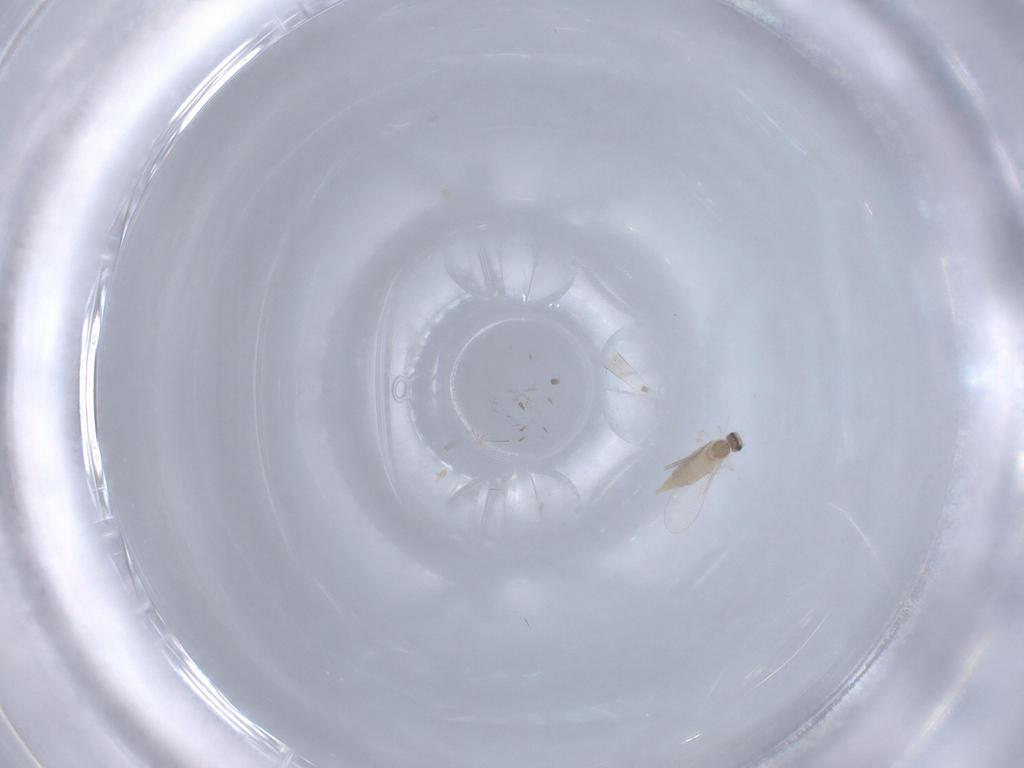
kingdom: Animalia
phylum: Arthropoda
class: Insecta
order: Diptera
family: Cecidomyiidae
